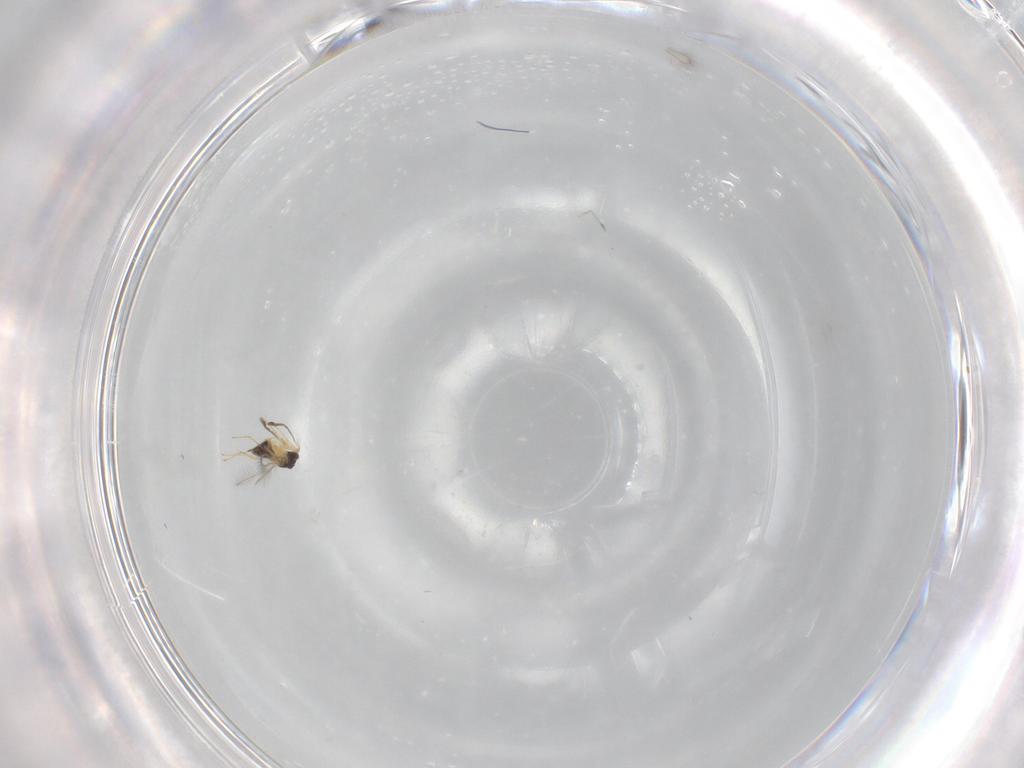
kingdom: Animalia
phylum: Arthropoda
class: Insecta
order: Hymenoptera
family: Mymaridae
